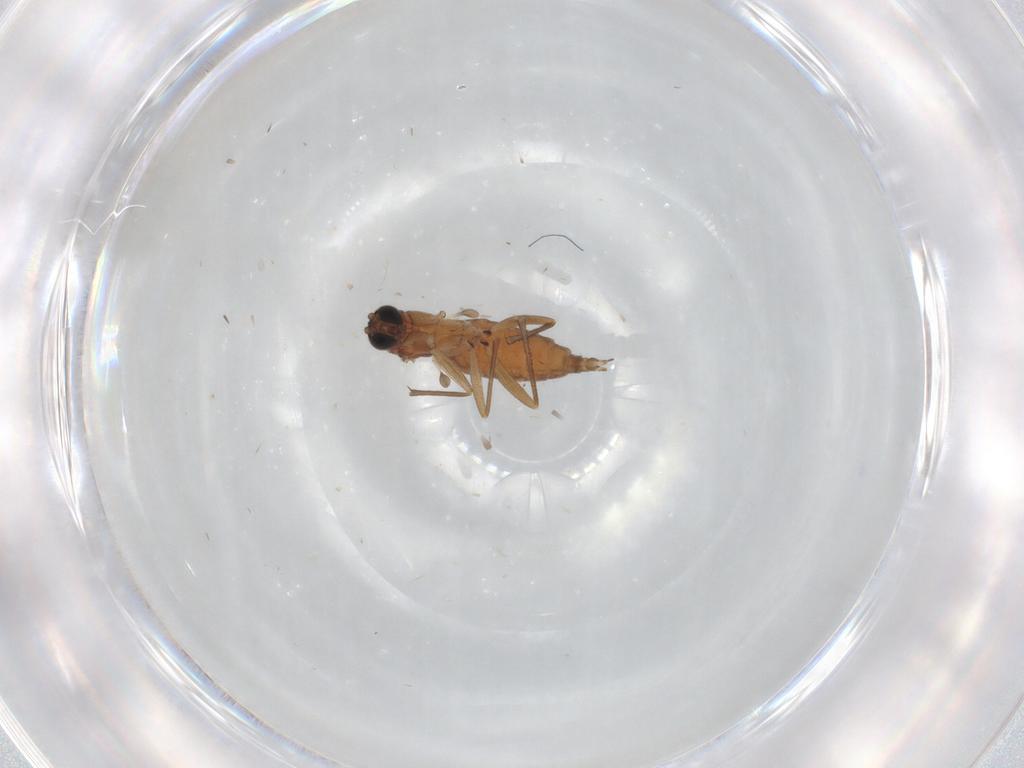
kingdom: Animalia
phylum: Arthropoda
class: Insecta
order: Diptera
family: Sciaridae
